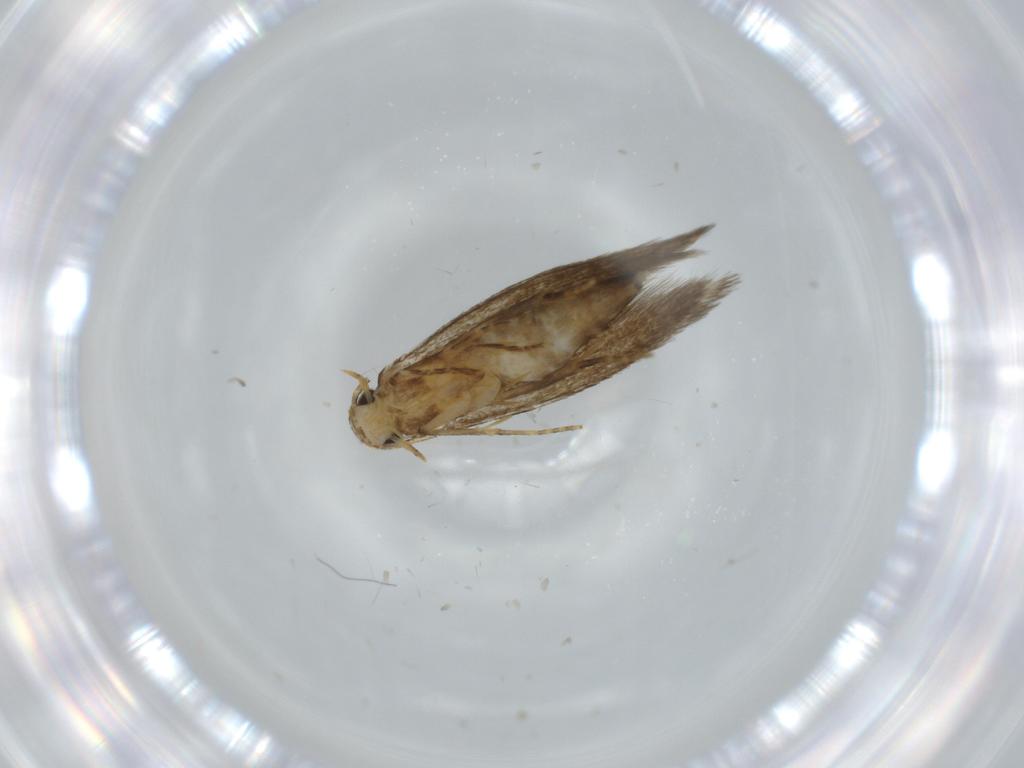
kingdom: Animalia
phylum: Arthropoda
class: Insecta
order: Lepidoptera
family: Tineidae
